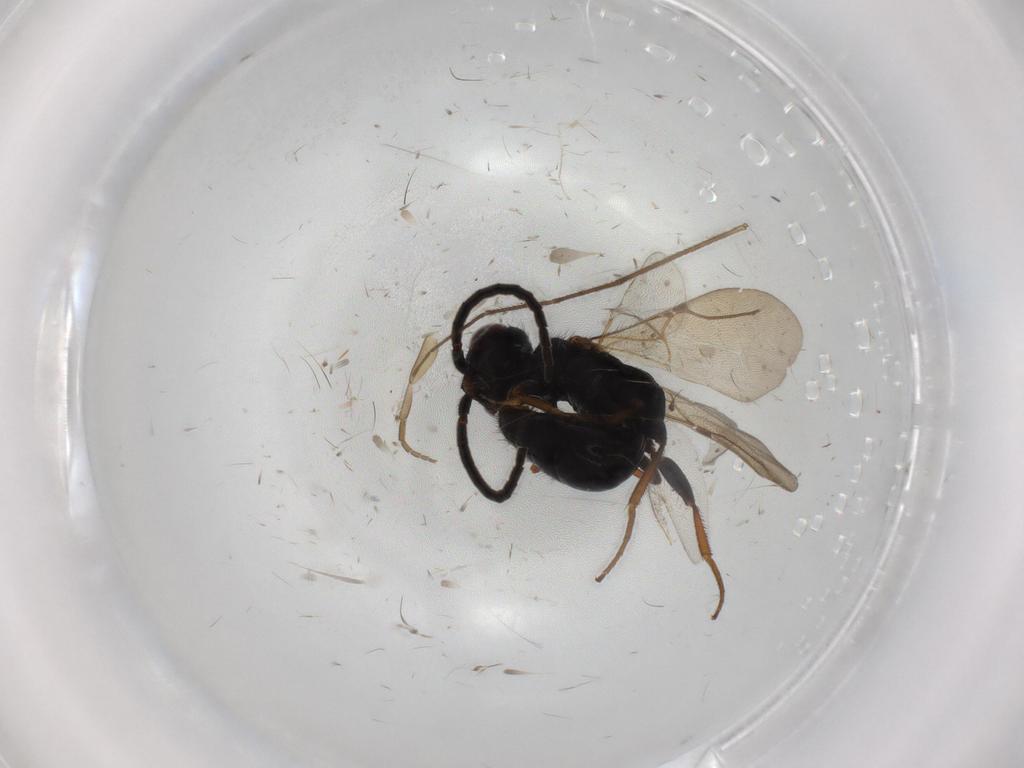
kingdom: Animalia
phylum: Arthropoda
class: Insecta
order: Hymenoptera
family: Bethylidae
